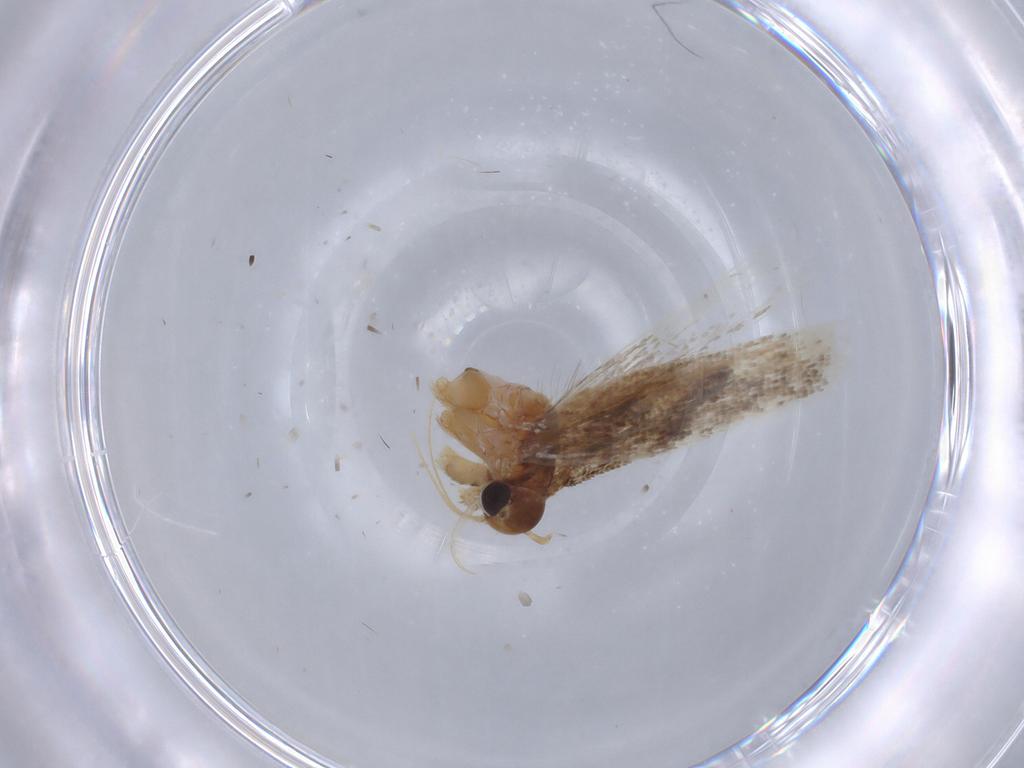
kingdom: Animalia
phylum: Arthropoda
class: Insecta
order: Lepidoptera
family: Gelechiidae
